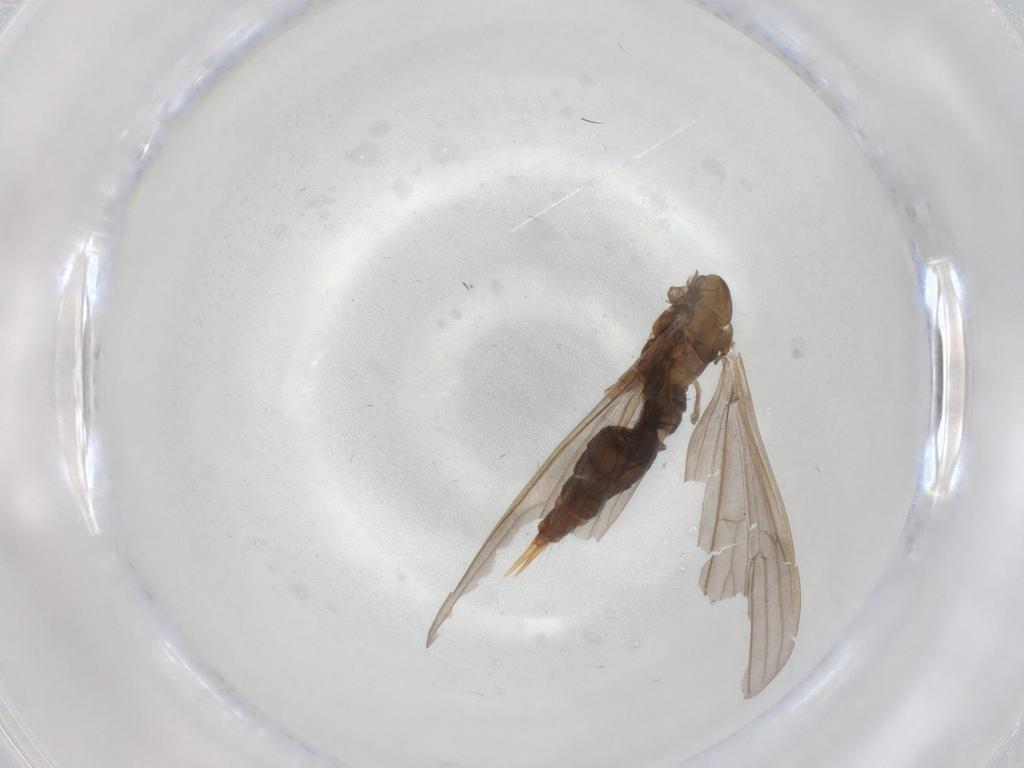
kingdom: Animalia
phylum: Arthropoda
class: Insecta
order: Diptera
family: Limoniidae
